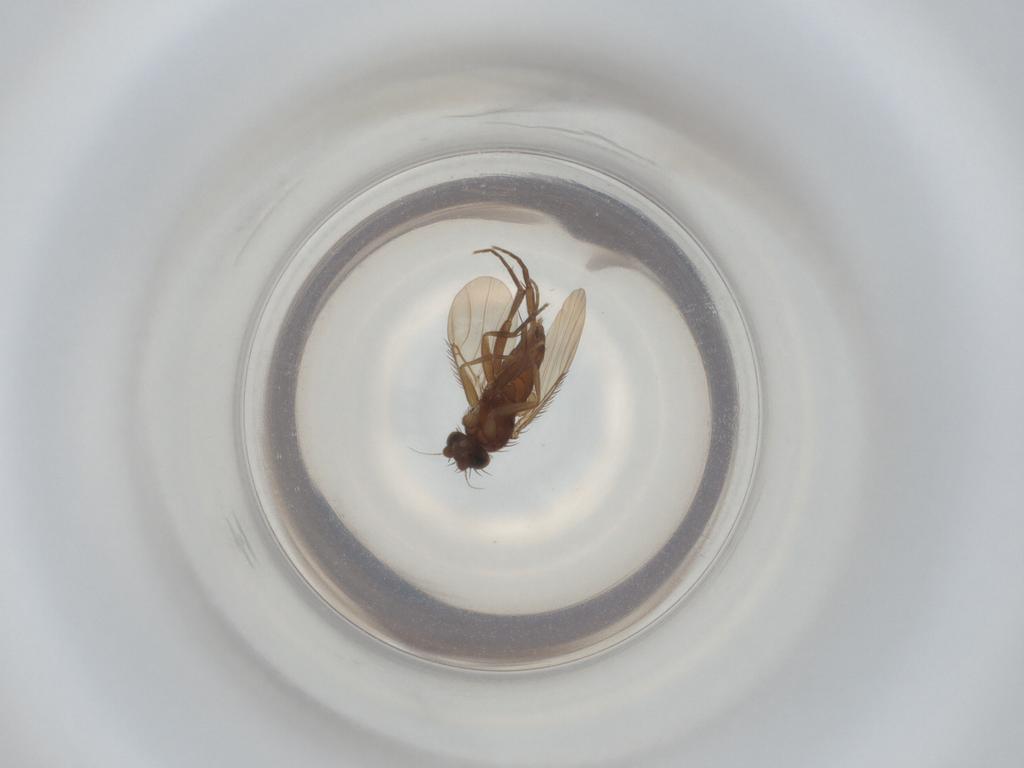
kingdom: Animalia
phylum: Arthropoda
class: Insecta
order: Diptera
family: Phoridae
